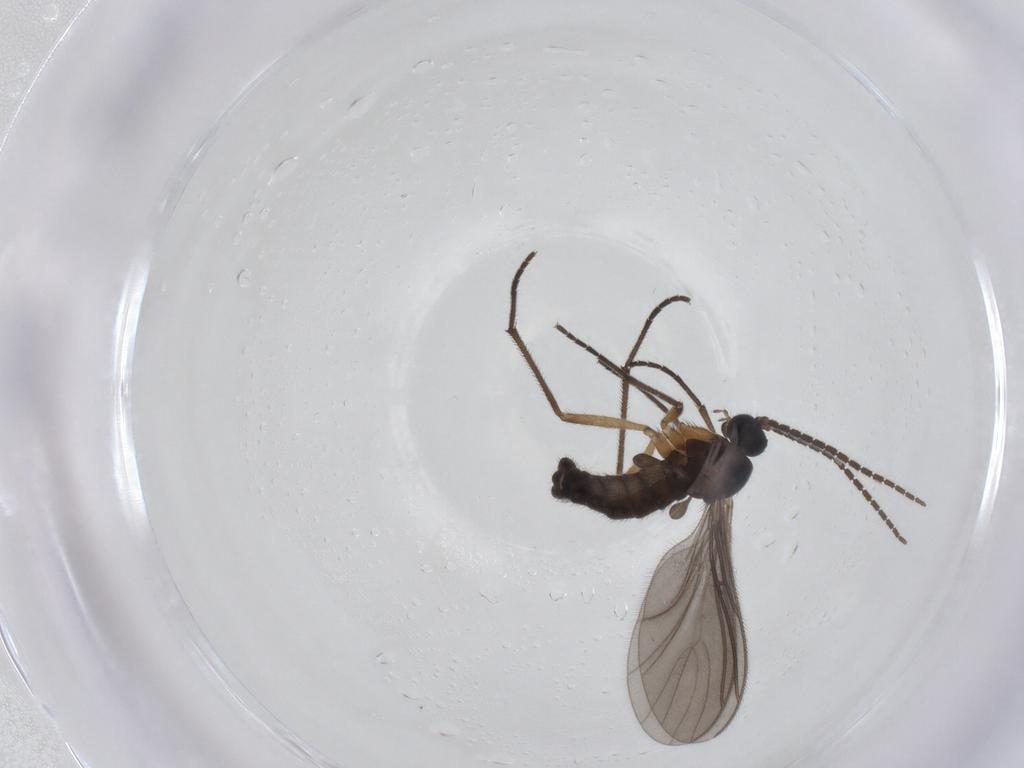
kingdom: Animalia
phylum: Arthropoda
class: Insecta
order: Diptera
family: Sciaridae
